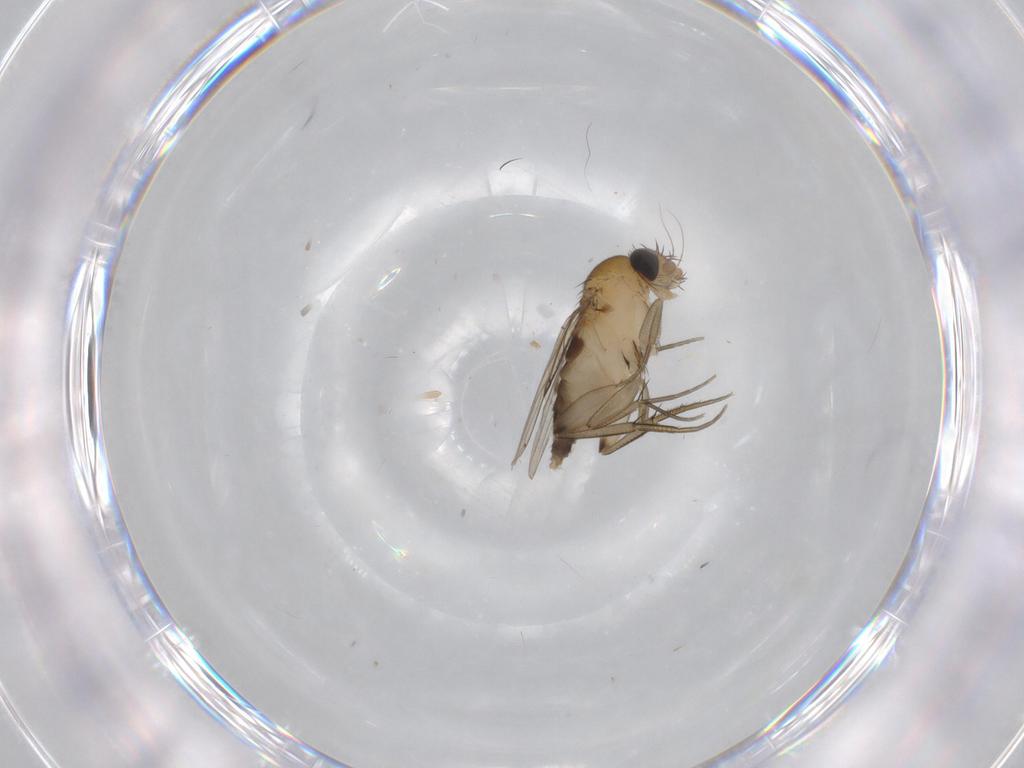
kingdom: Animalia
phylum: Arthropoda
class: Insecta
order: Diptera
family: Phoridae
